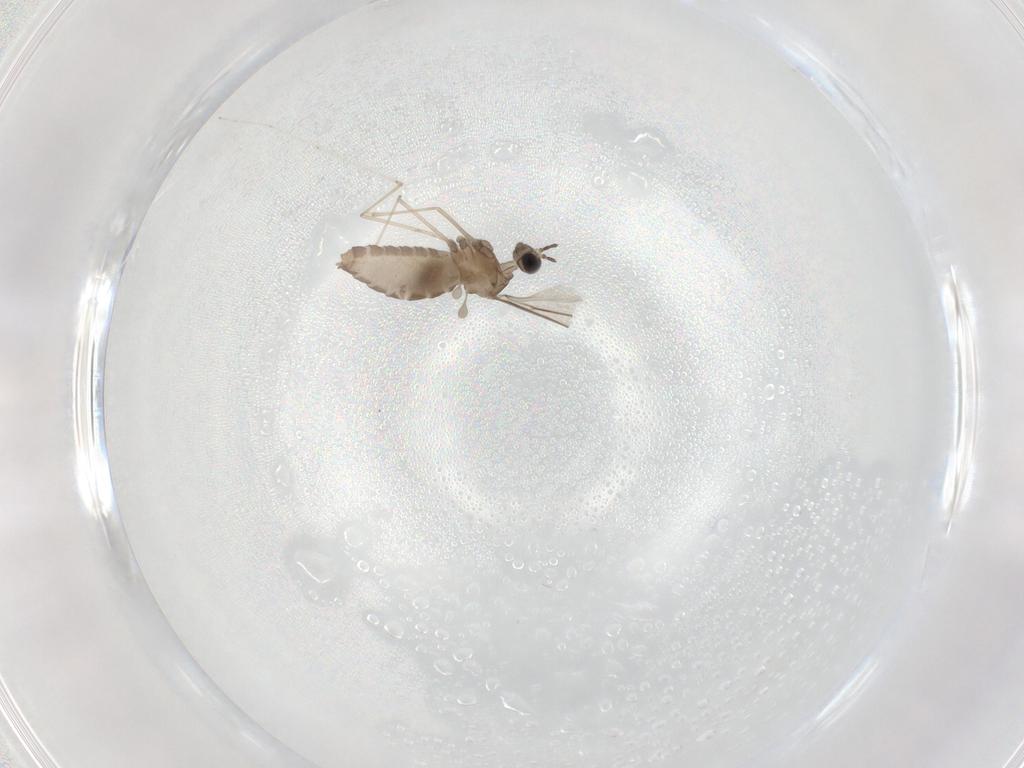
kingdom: Animalia
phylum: Arthropoda
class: Insecta
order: Diptera
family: Cecidomyiidae
